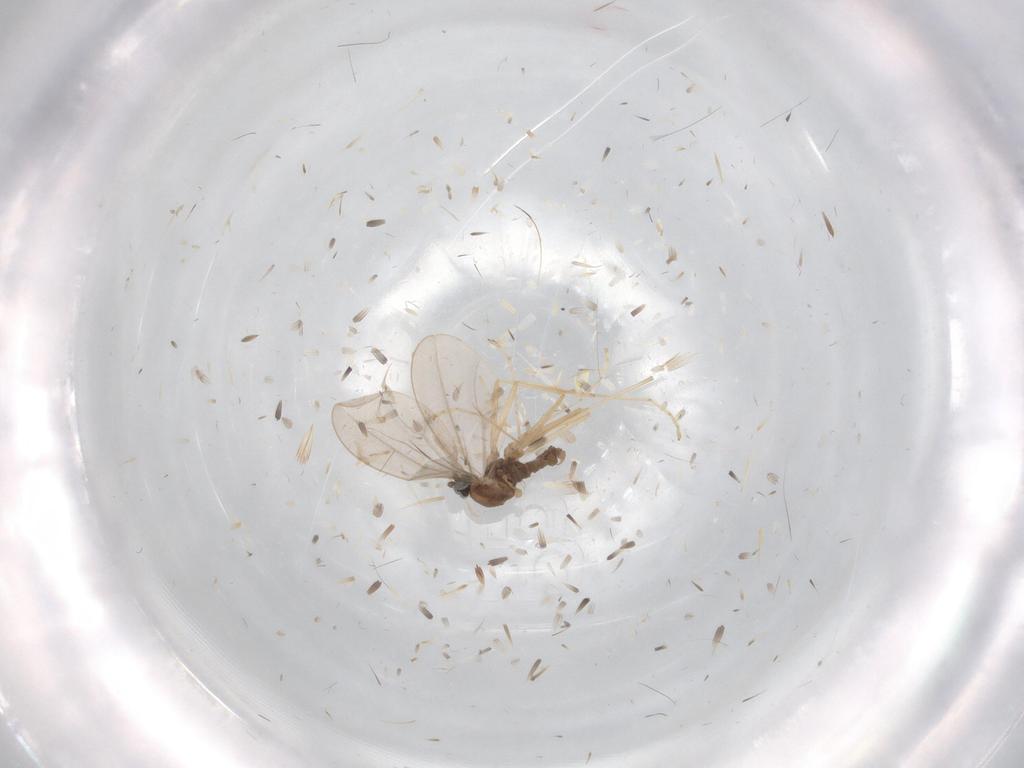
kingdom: Animalia
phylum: Arthropoda
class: Insecta
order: Diptera
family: Cecidomyiidae
